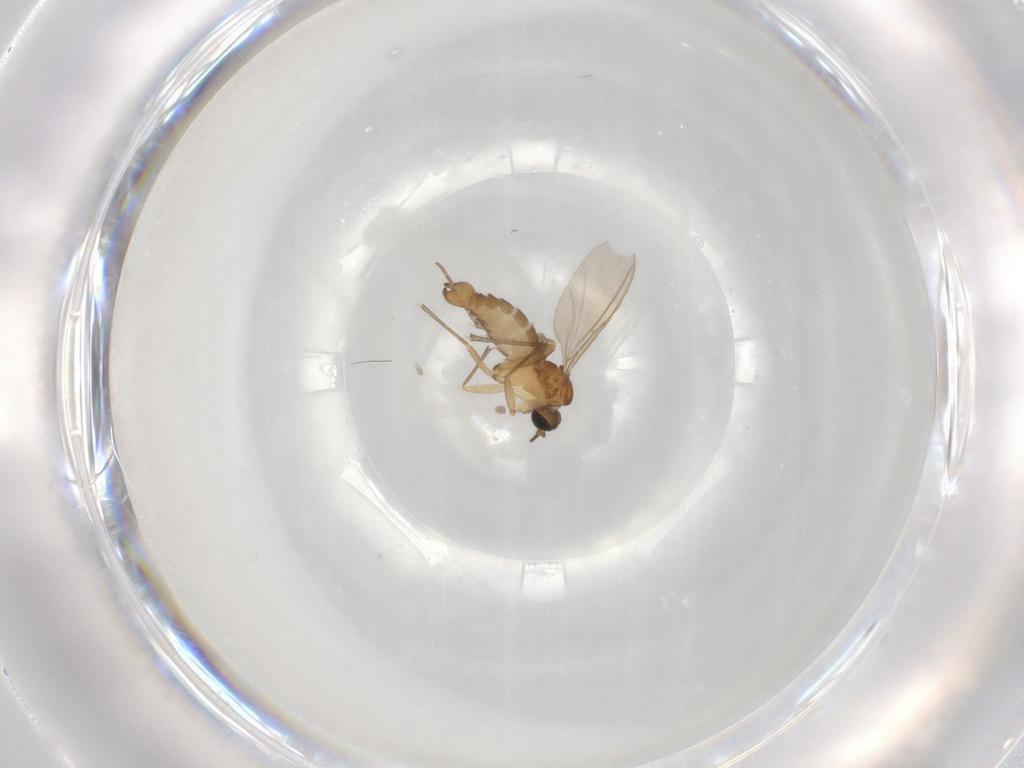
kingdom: Animalia
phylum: Arthropoda
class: Insecta
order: Diptera
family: Sciaridae
